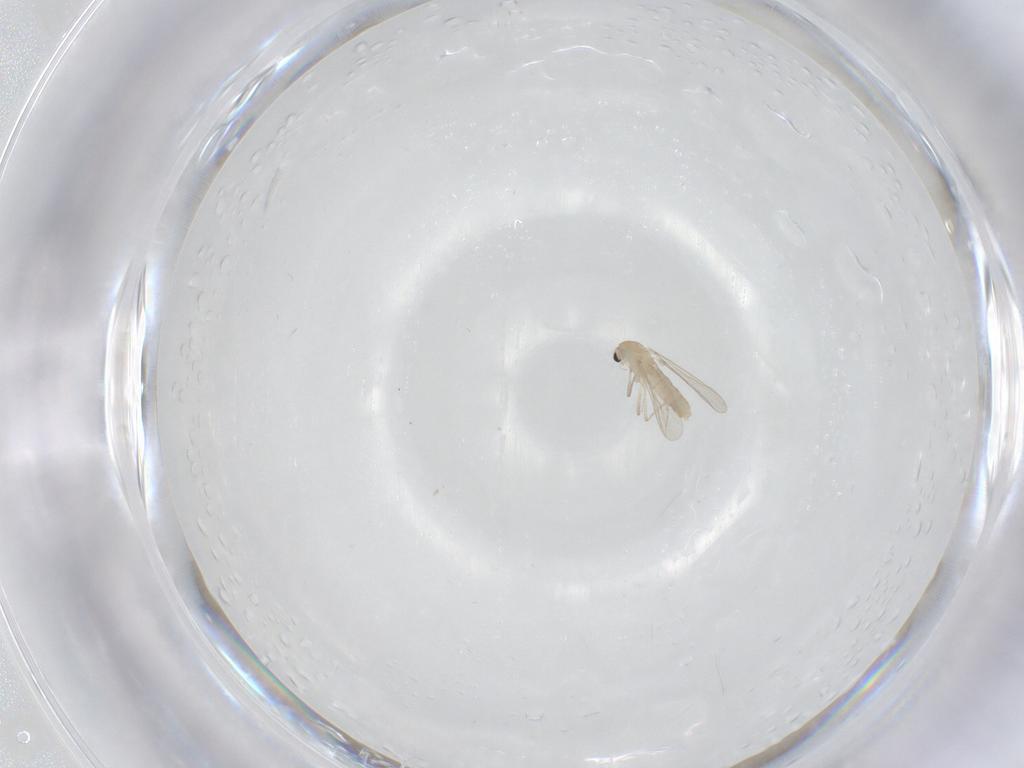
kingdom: Animalia
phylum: Arthropoda
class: Insecta
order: Diptera
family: Chironomidae
